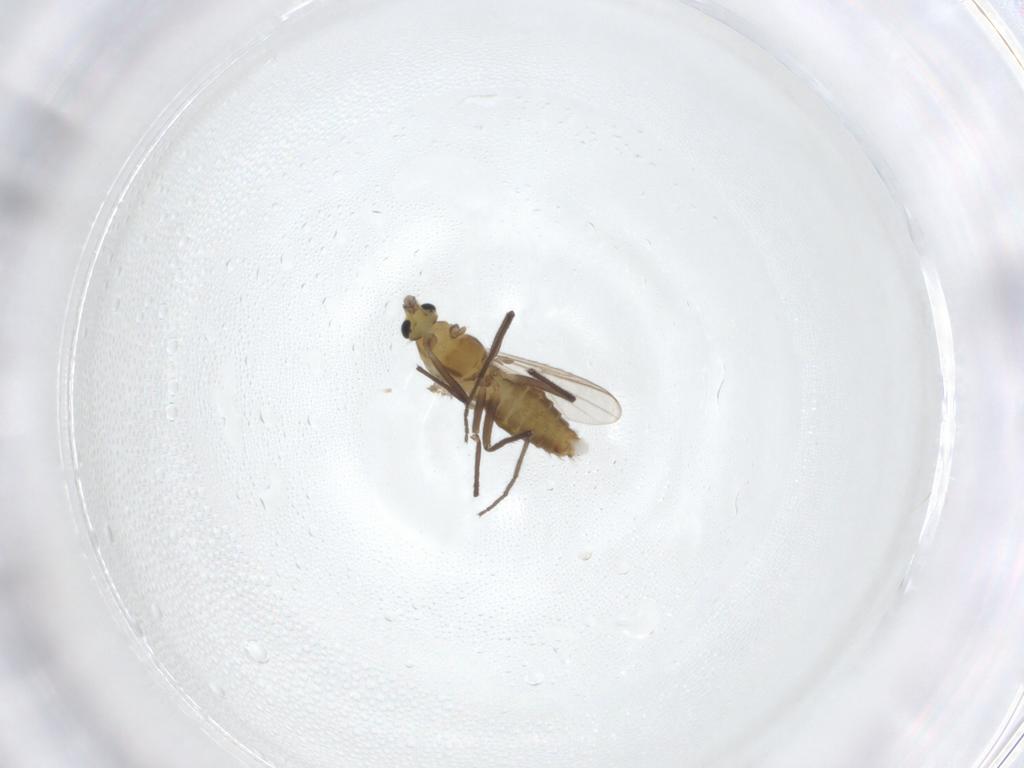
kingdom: Animalia
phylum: Arthropoda
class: Insecta
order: Diptera
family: Chironomidae
